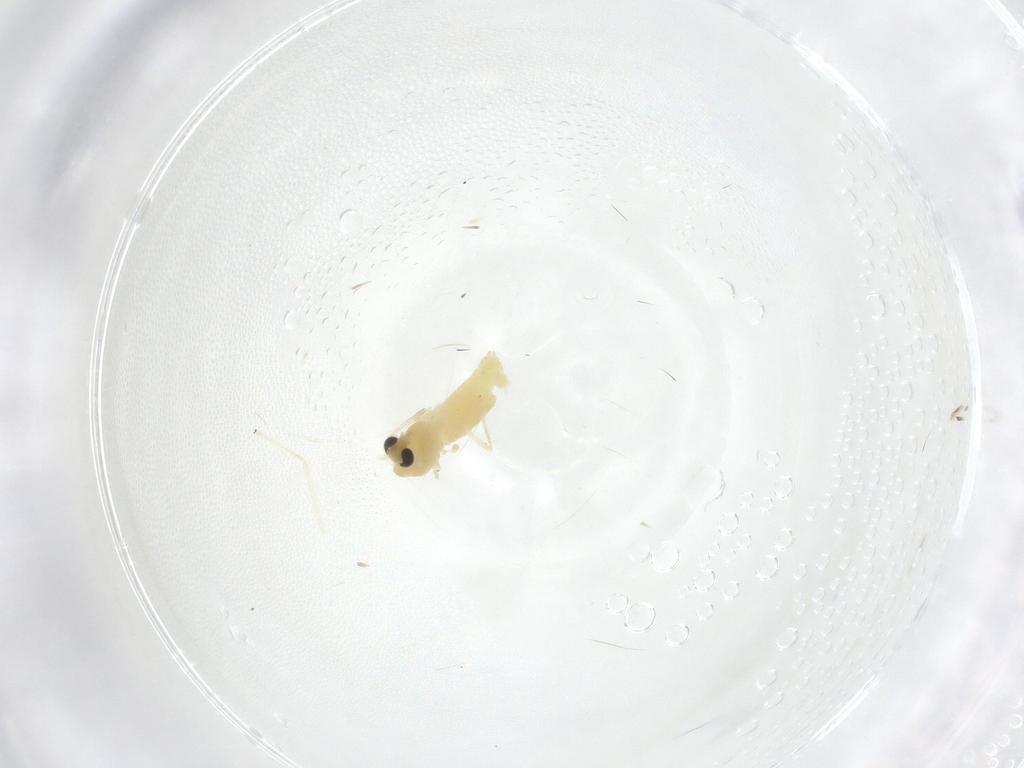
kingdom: Animalia
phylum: Arthropoda
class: Insecta
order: Diptera
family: Chironomidae
